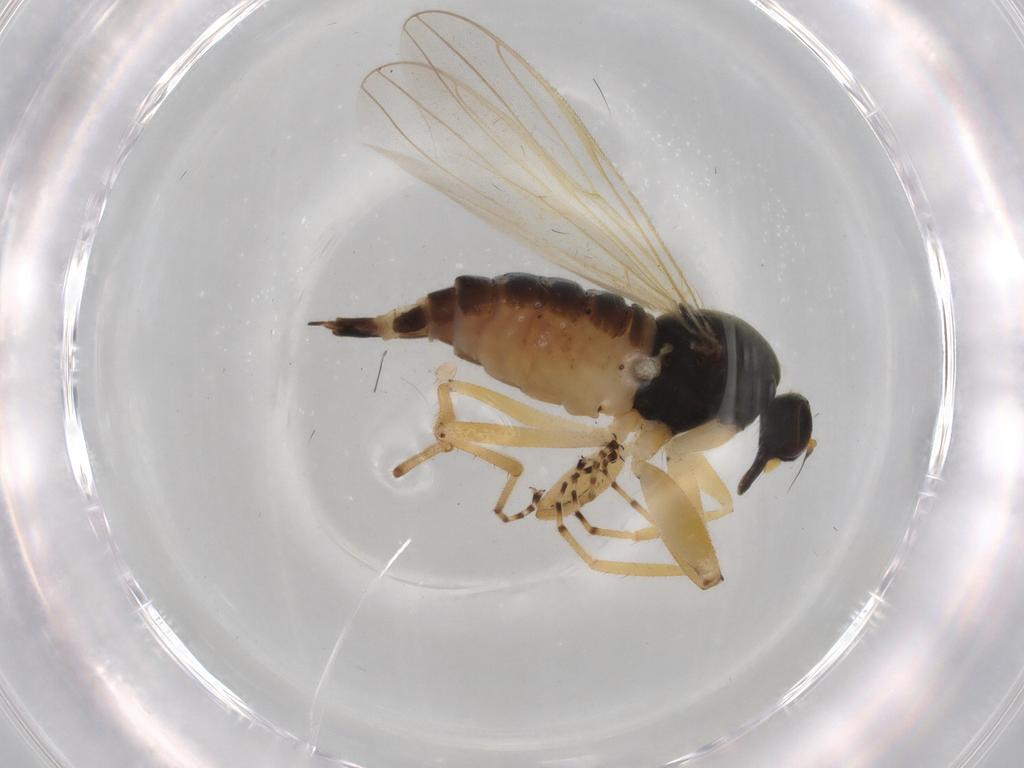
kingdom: Animalia
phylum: Arthropoda
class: Insecta
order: Diptera
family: Hybotidae
